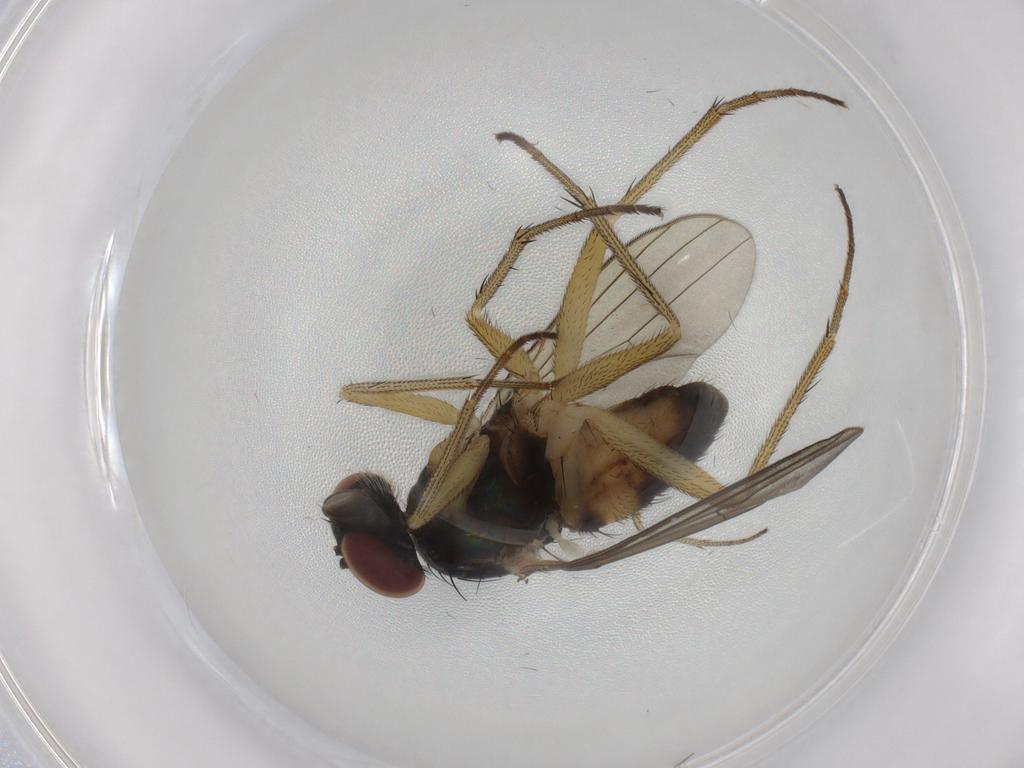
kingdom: Animalia
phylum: Arthropoda
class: Insecta
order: Diptera
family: Dolichopodidae
